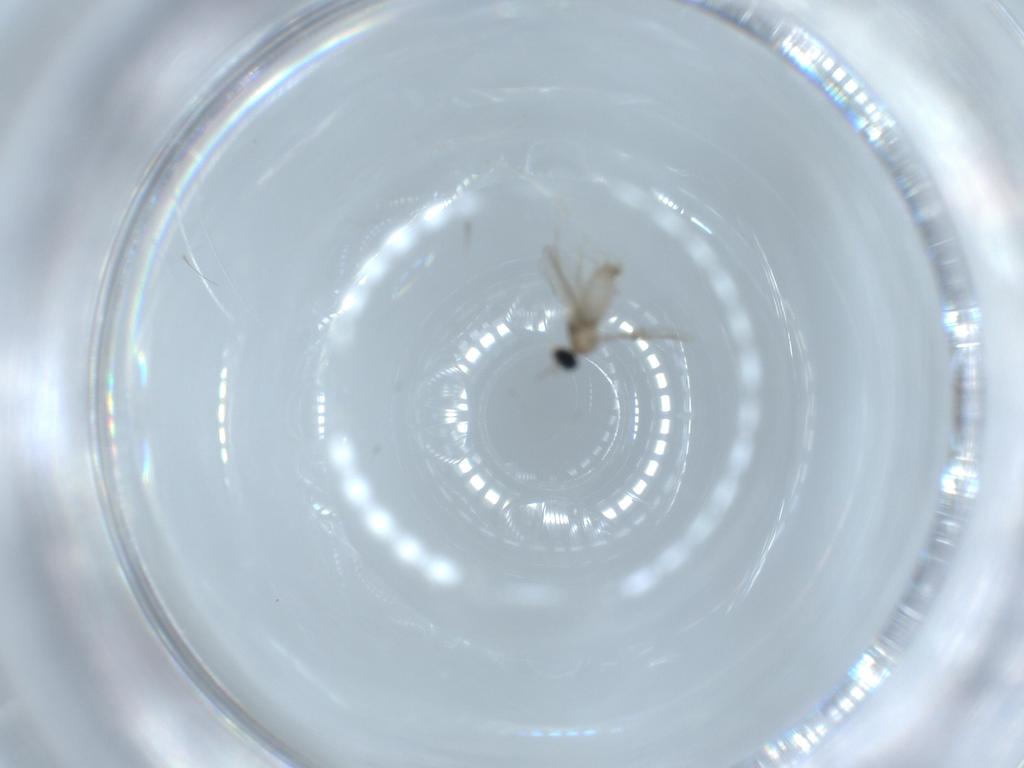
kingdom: Animalia
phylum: Arthropoda
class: Insecta
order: Diptera
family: Cecidomyiidae
